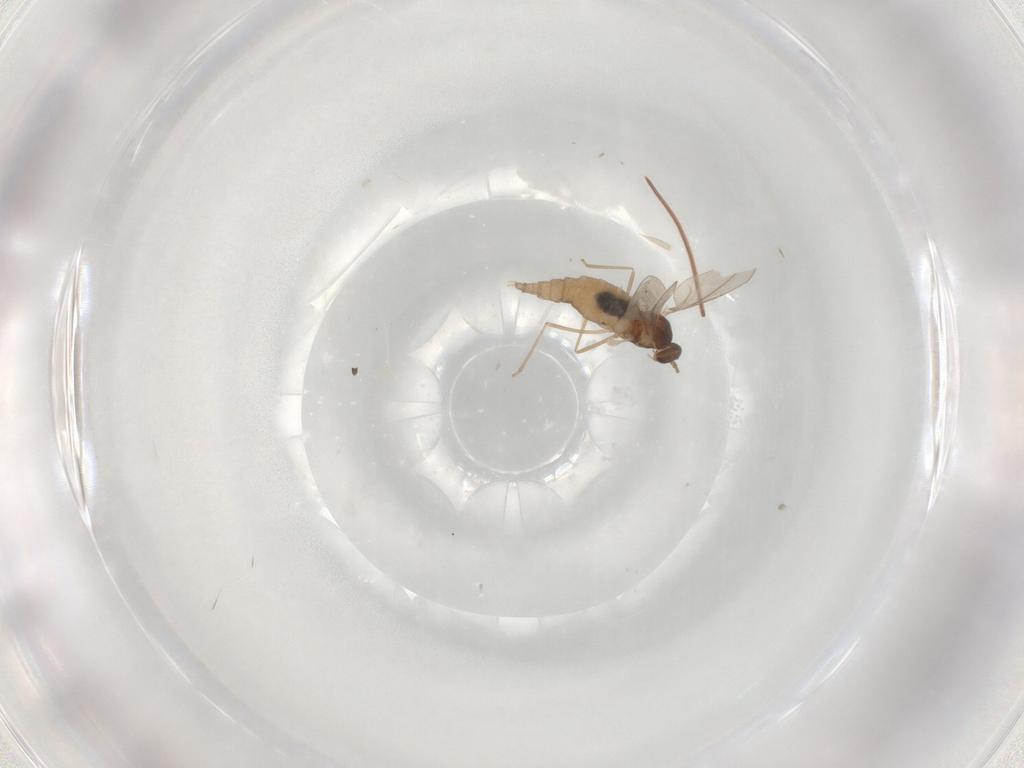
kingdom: Animalia
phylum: Arthropoda
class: Insecta
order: Diptera
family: Cecidomyiidae
